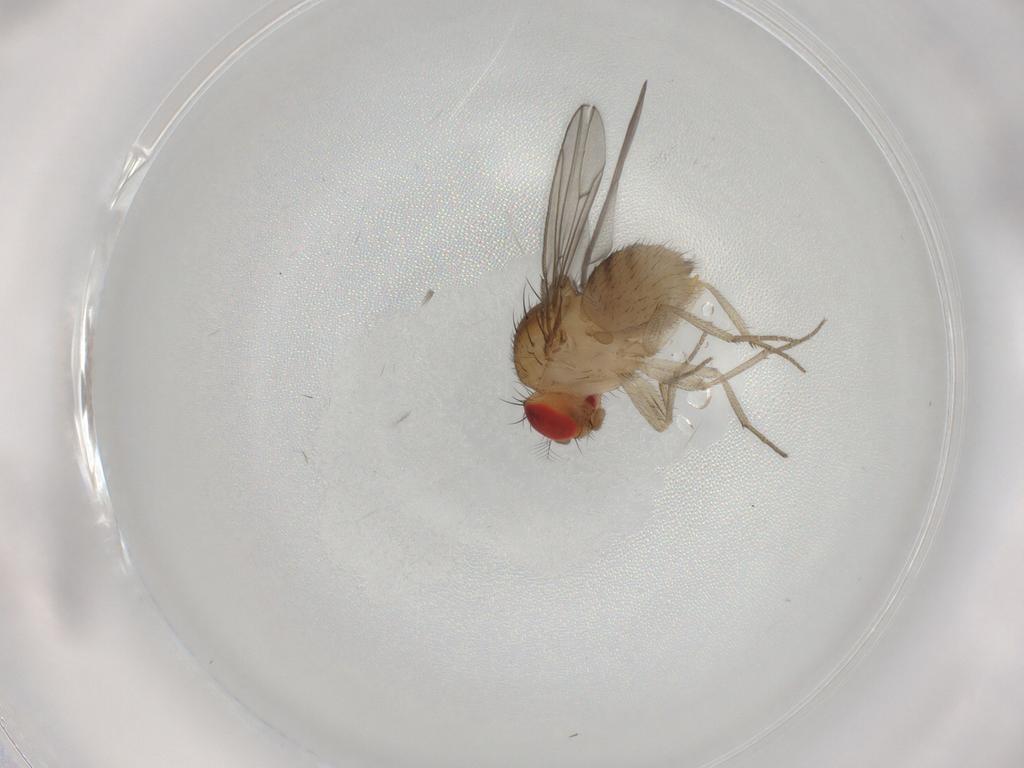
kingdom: Animalia
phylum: Arthropoda
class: Insecta
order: Diptera
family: Drosophilidae
